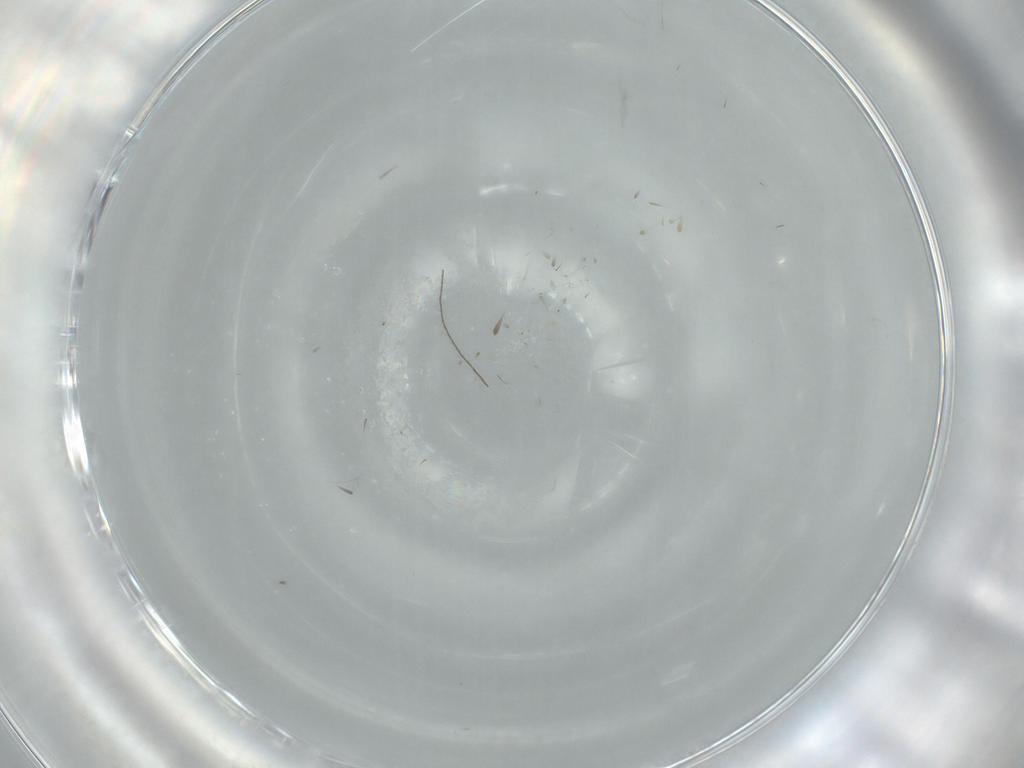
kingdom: Animalia
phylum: Arthropoda
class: Insecta
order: Psocodea
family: Lepidopsocidae
